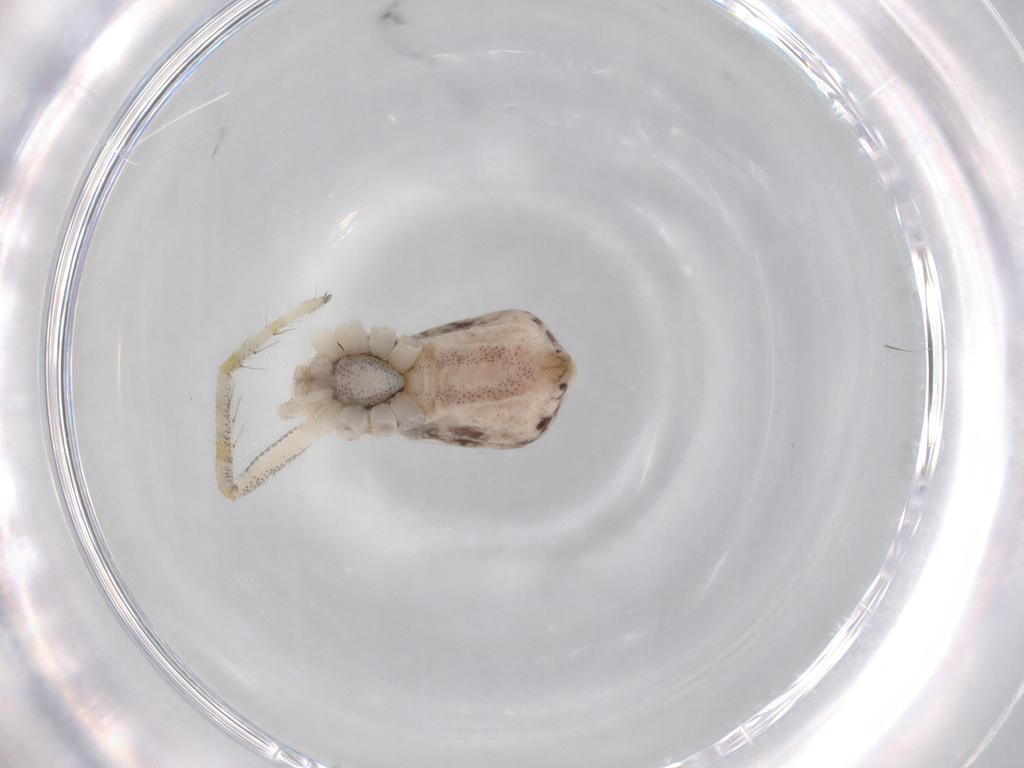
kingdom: Animalia
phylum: Arthropoda
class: Arachnida
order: Araneae
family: Philodromidae
